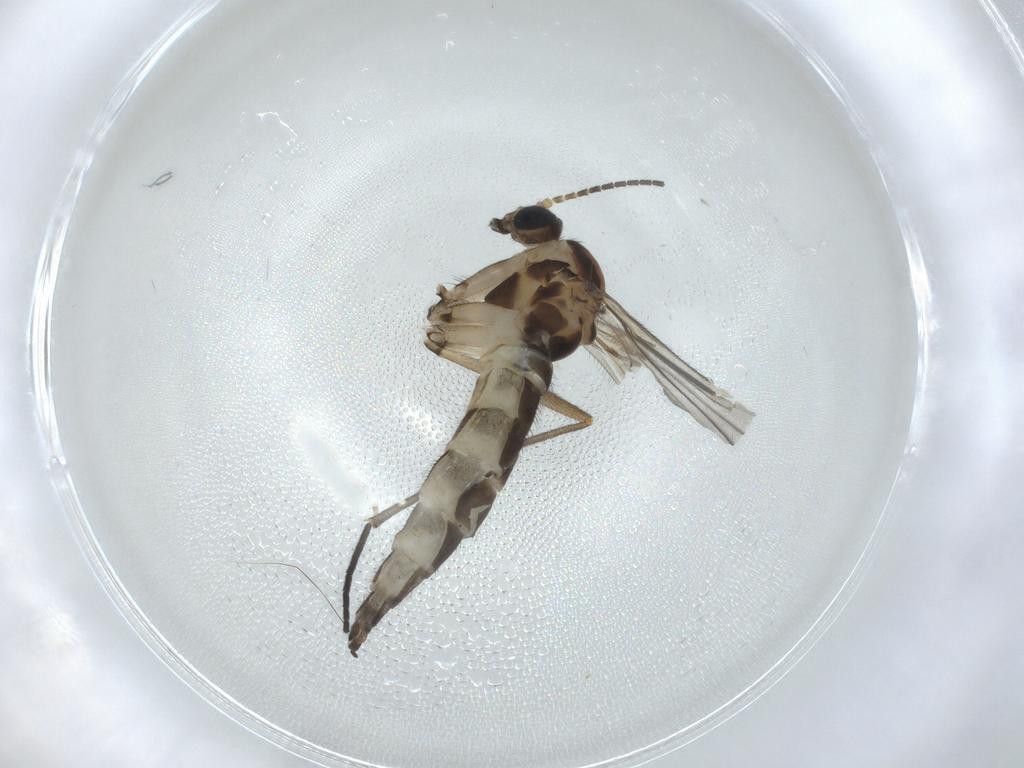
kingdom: Animalia
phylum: Arthropoda
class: Insecta
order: Diptera
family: Sciaridae
